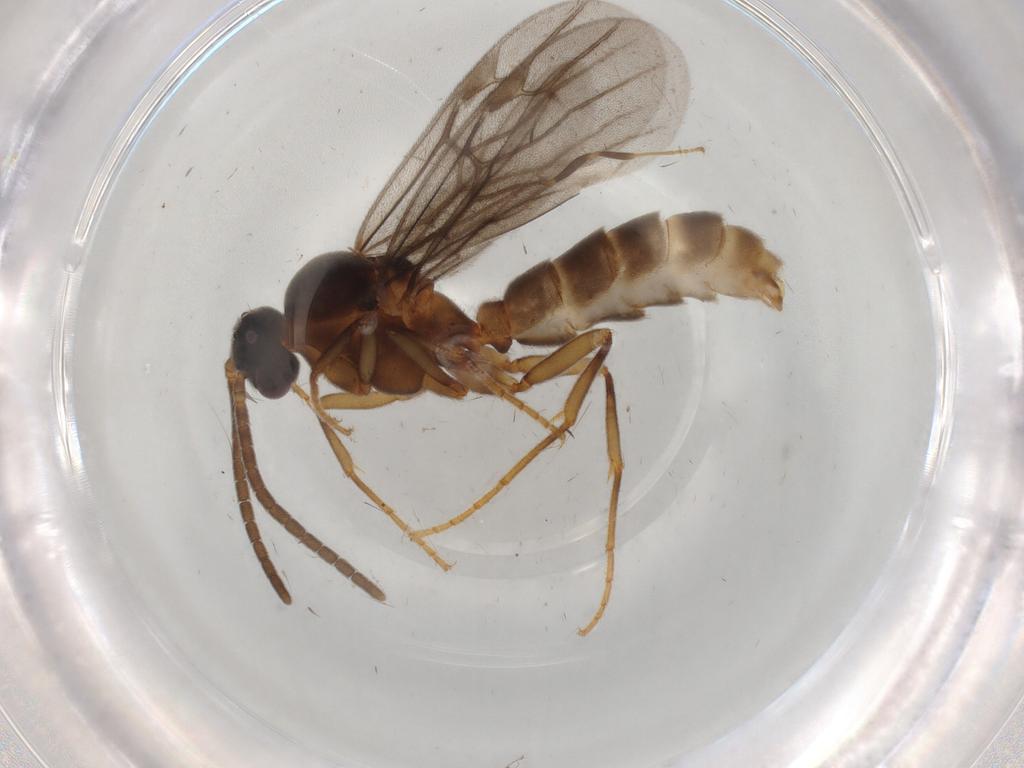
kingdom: Animalia
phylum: Arthropoda
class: Insecta
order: Hymenoptera
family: Formicidae
